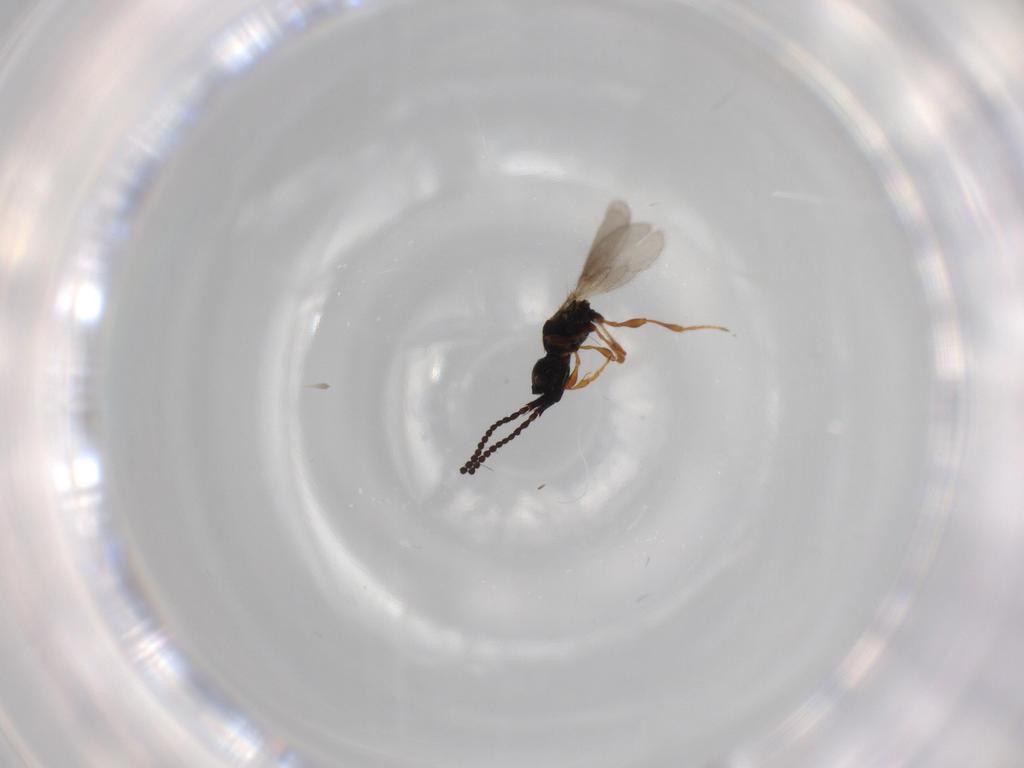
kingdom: Animalia
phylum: Arthropoda
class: Insecta
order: Hymenoptera
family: Diapriidae
